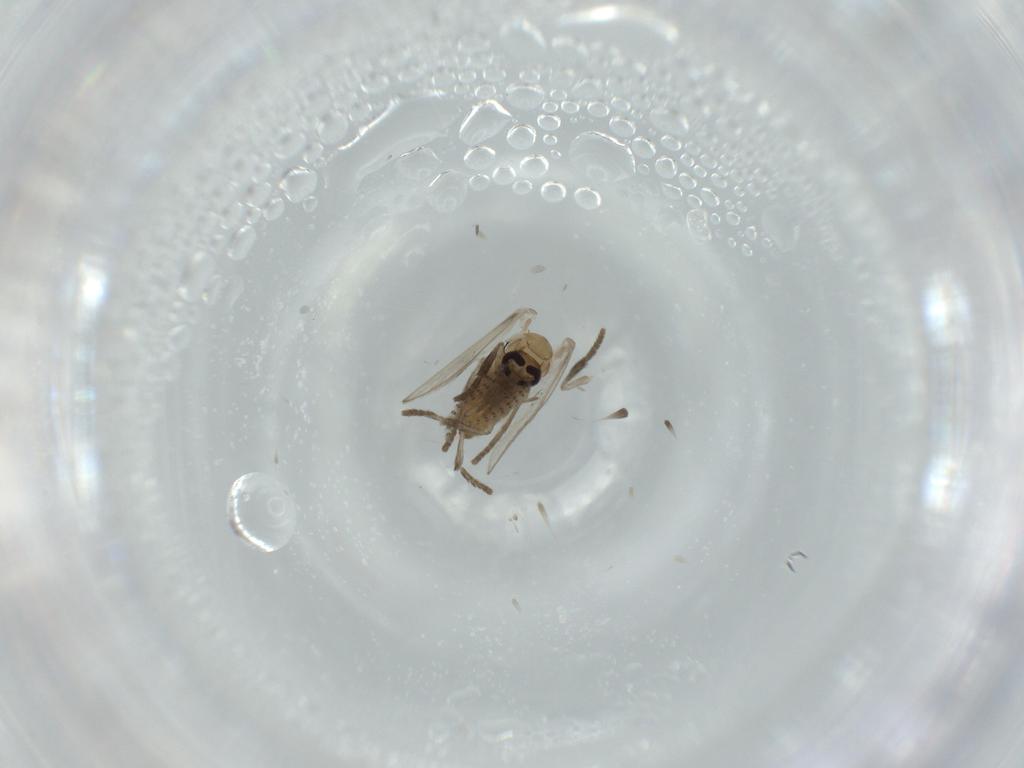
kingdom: Animalia
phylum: Arthropoda
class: Insecta
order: Diptera
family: Psychodidae
